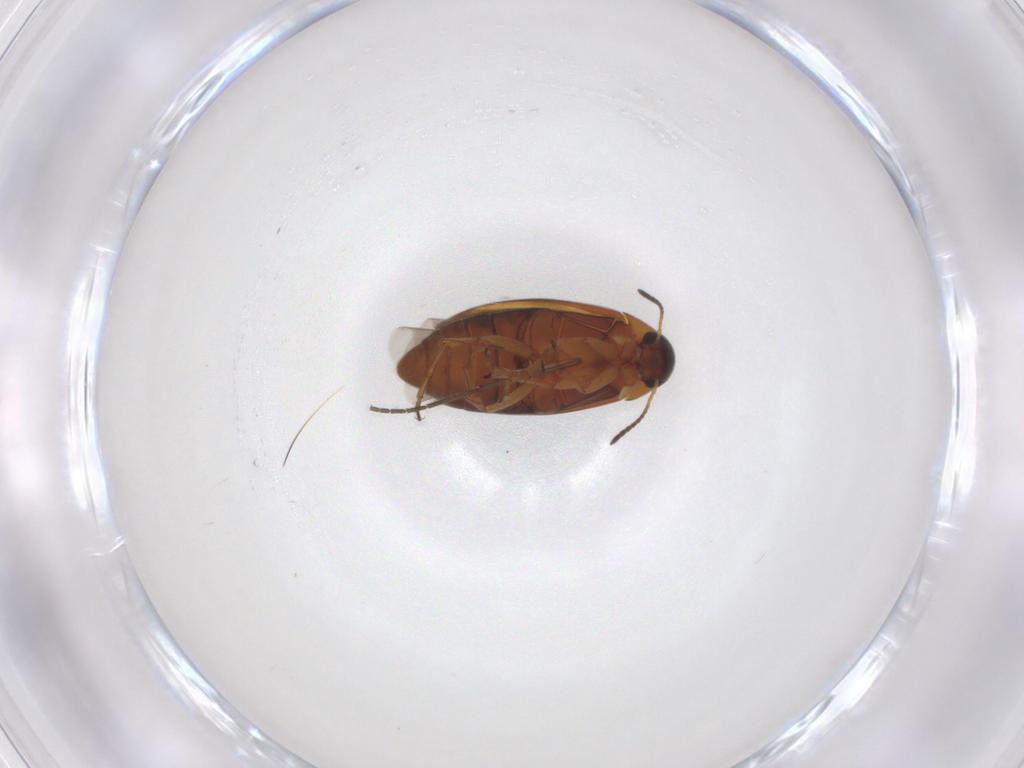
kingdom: Animalia
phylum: Arthropoda
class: Insecta
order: Coleoptera
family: Scraptiidae
